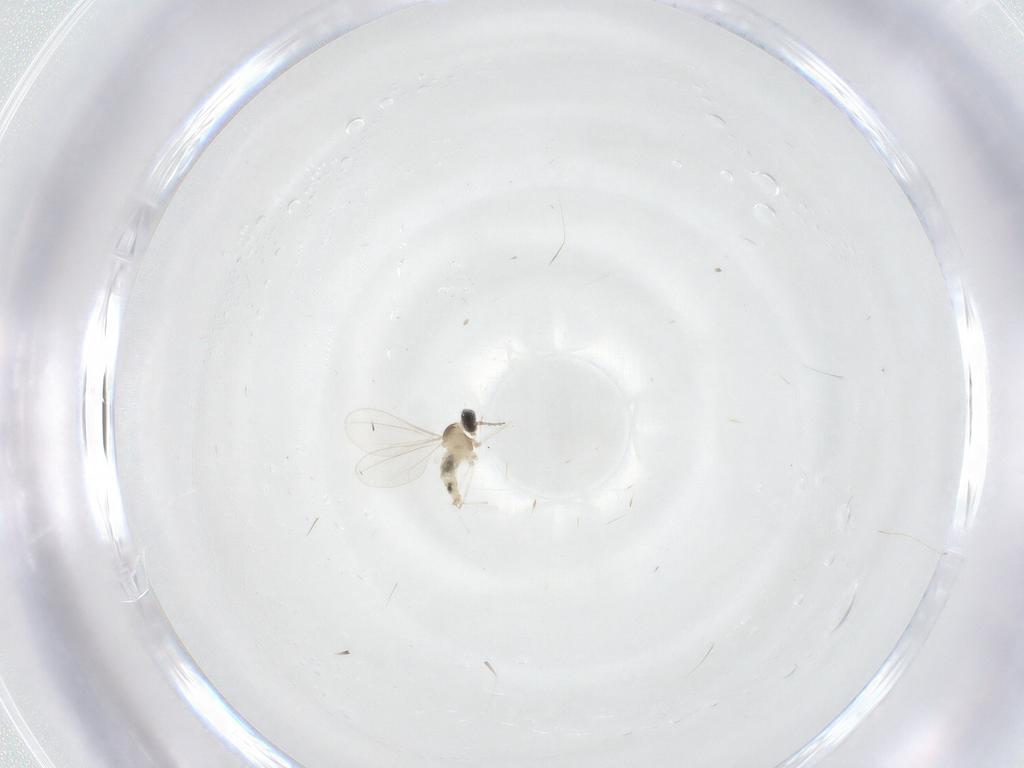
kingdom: Animalia
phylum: Arthropoda
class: Insecta
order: Diptera
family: Cecidomyiidae
